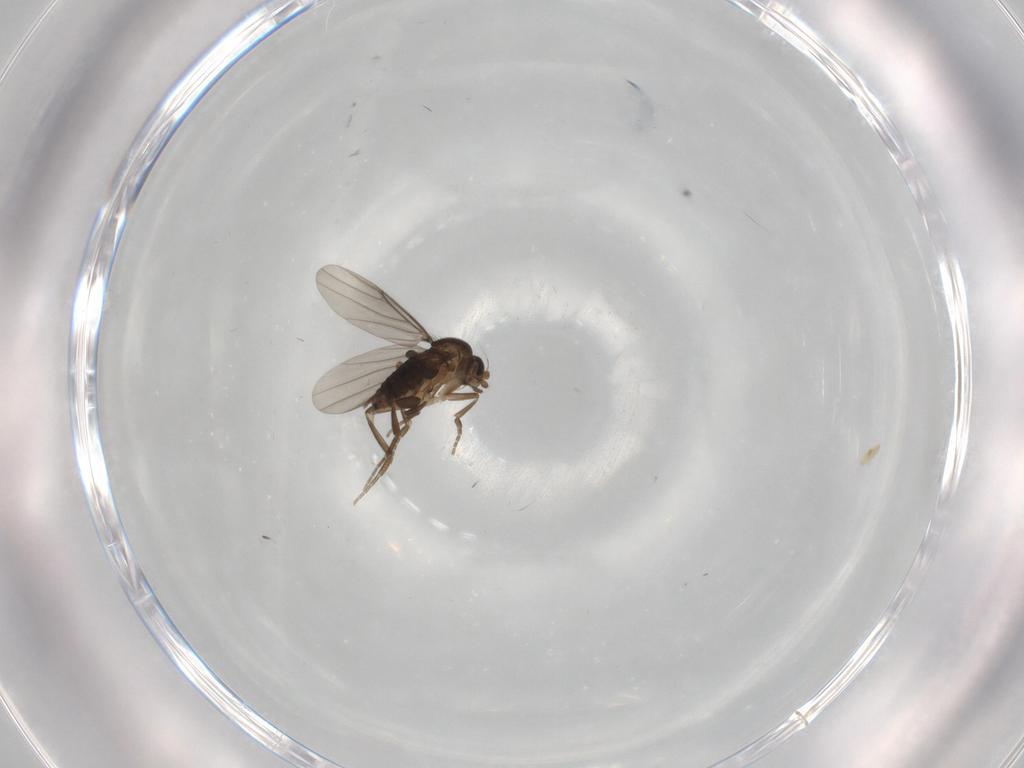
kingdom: Animalia
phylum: Arthropoda
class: Insecta
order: Diptera
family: Phoridae
